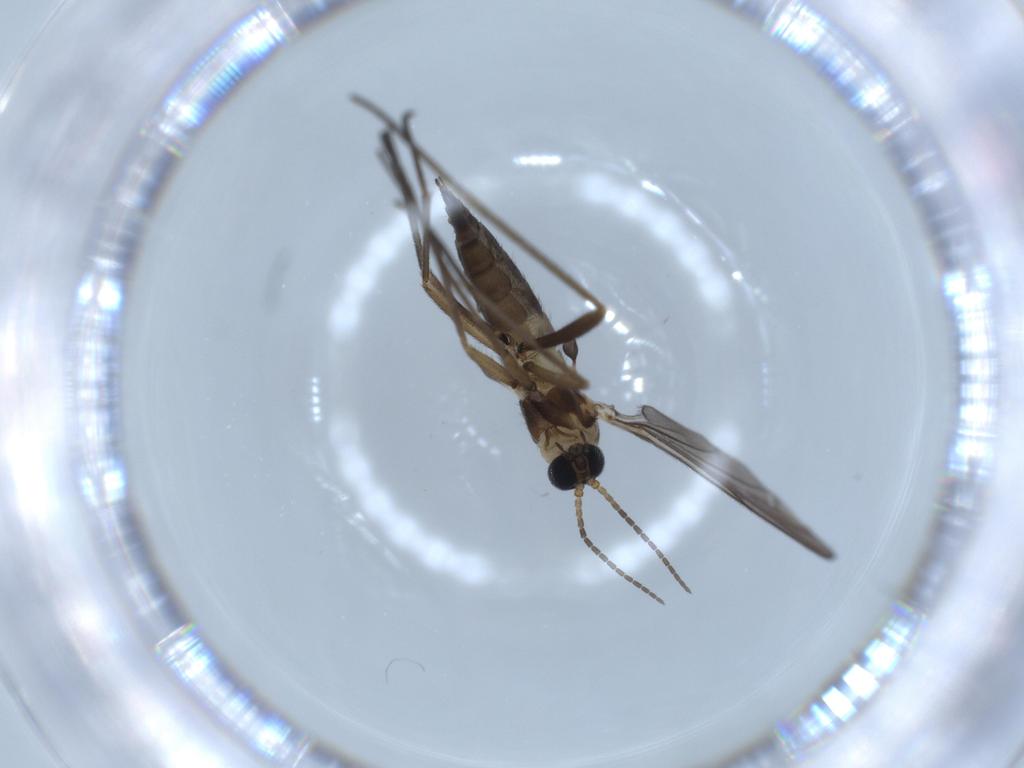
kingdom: Animalia
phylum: Arthropoda
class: Insecta
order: Diptera
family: Sciaridae
